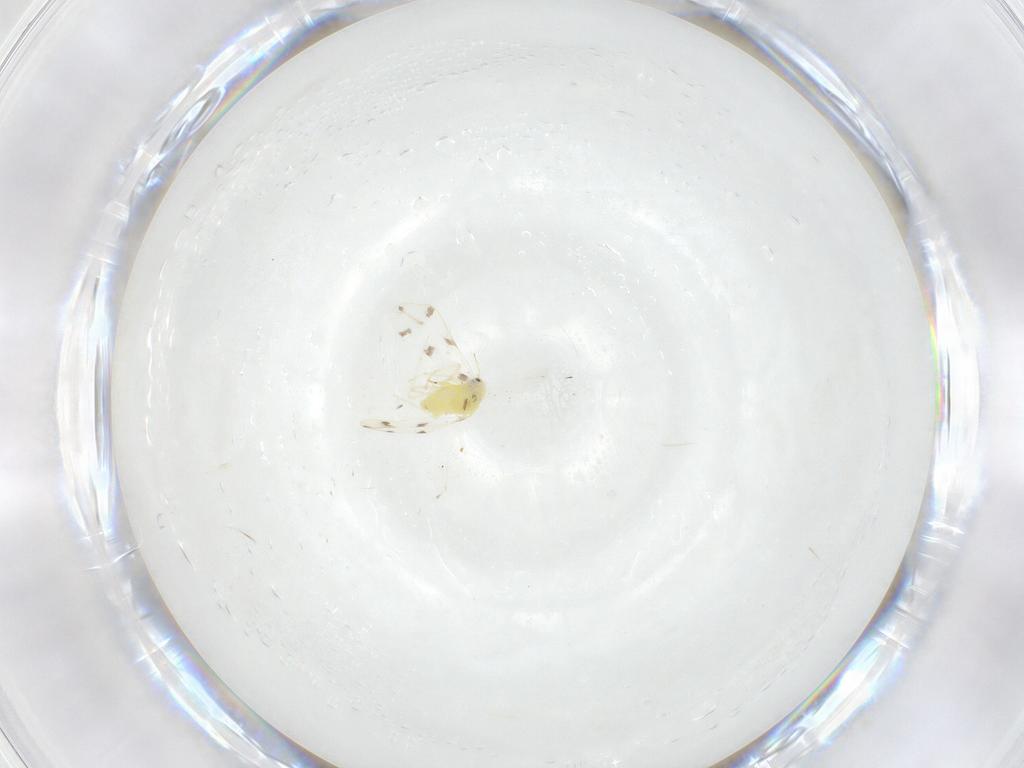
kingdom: Animalia
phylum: Arthropoda
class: Insecta
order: Hemiptera
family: Aleyrodidae
